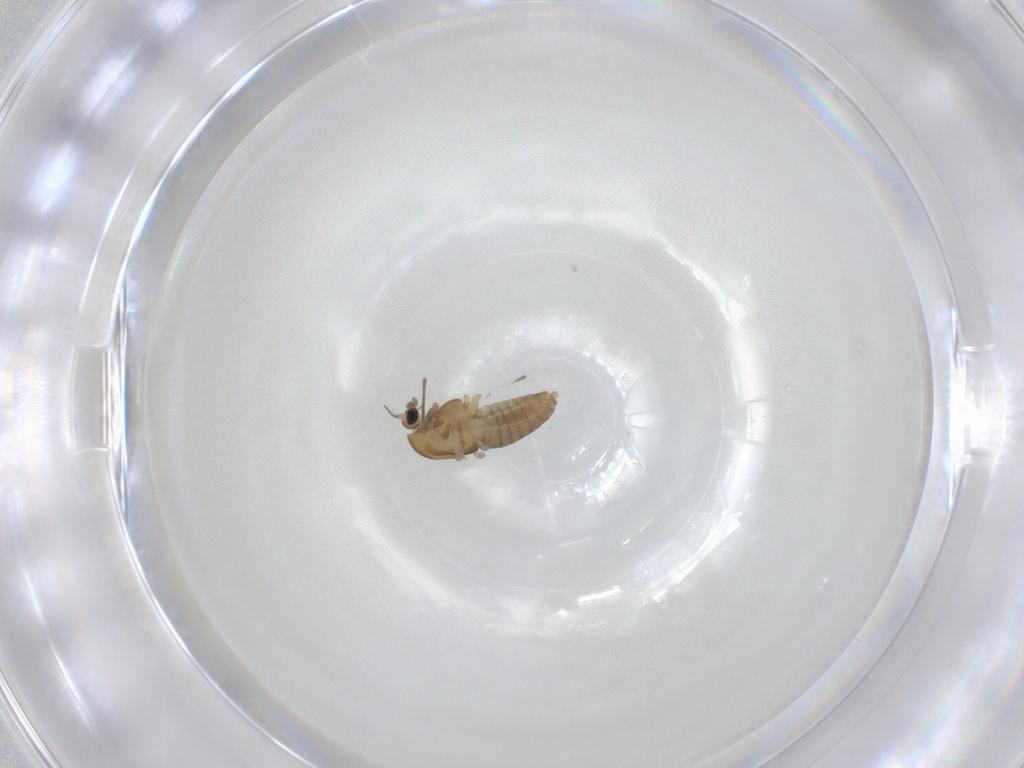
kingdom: Animalia
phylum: Arthropoda
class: Insecta
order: Diptera
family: Chironomidae
